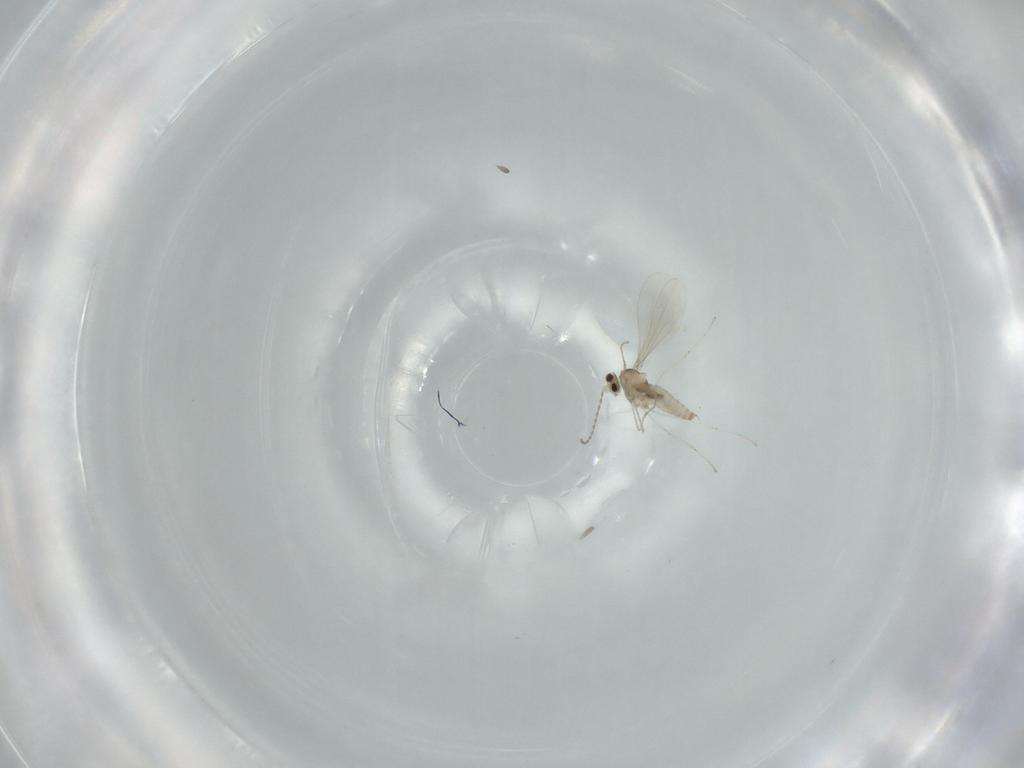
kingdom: Animalia
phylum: Arthropoda
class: Insecta
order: Diptera
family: Cecidomyiidae
